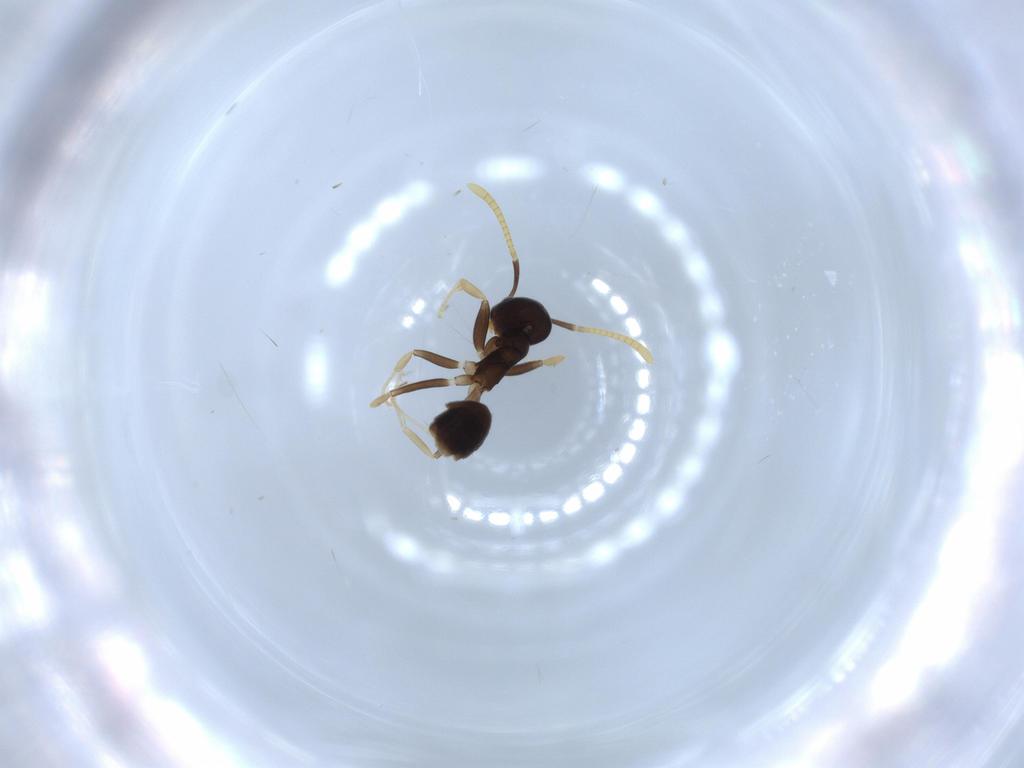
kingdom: Animalia
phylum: Arthropoda
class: Insecta
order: Hymenoptera
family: Formicidae
